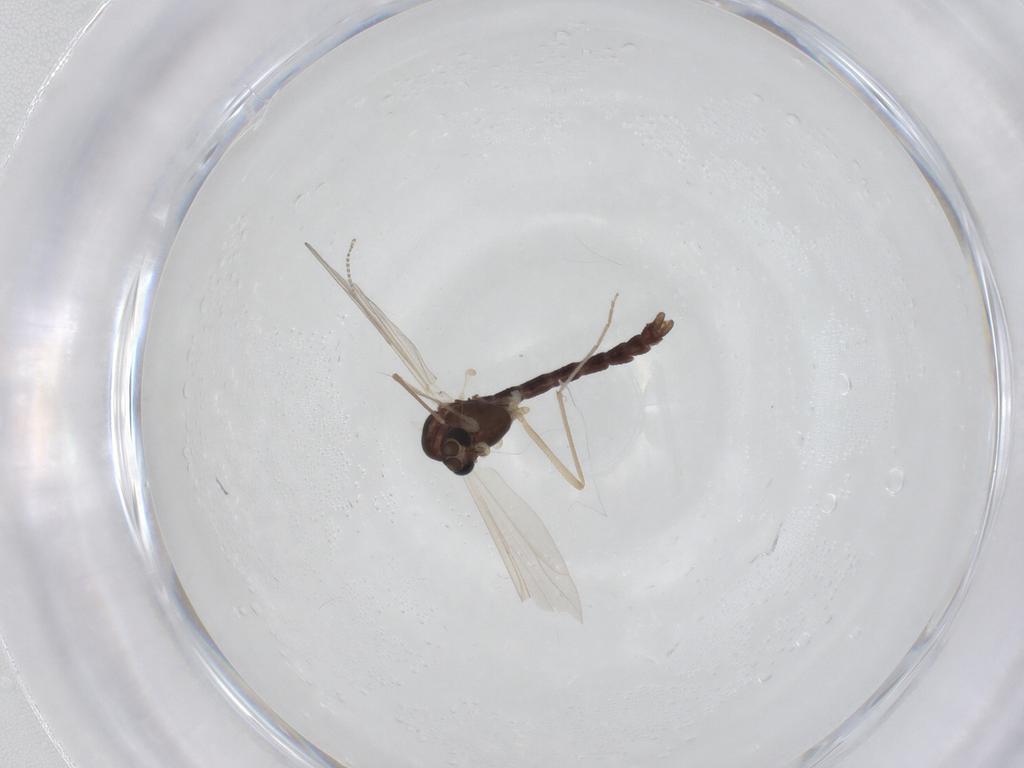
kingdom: Animalia
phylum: Arthropoda
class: Insecta
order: Diptera
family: Chironomidae
